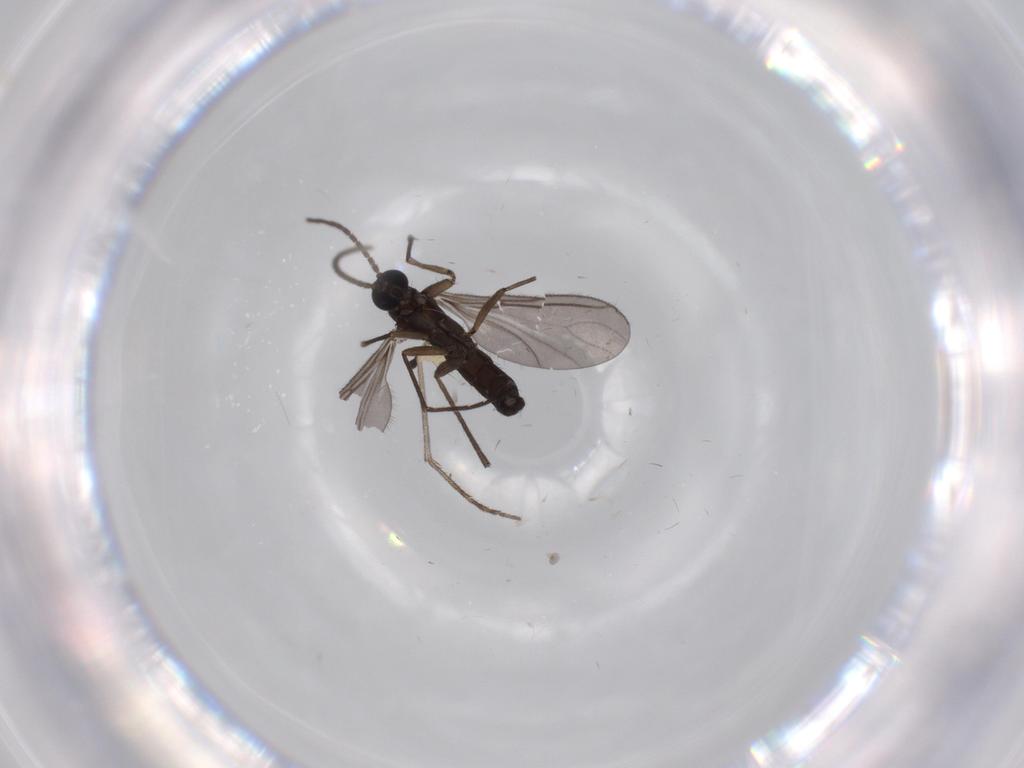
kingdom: Animalia
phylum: Arthropoda
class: Insecta
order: Diptera
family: Sciaridae
